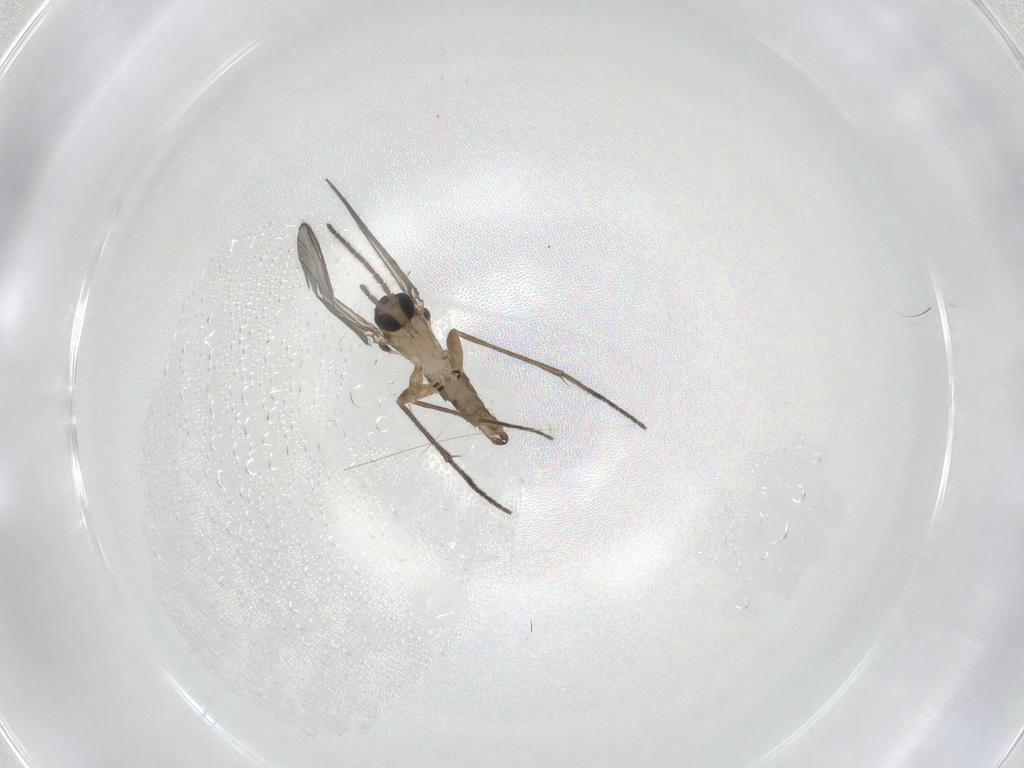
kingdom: Animalia
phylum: Arthropoda
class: Insecta
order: Diptera
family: Sciaridae
